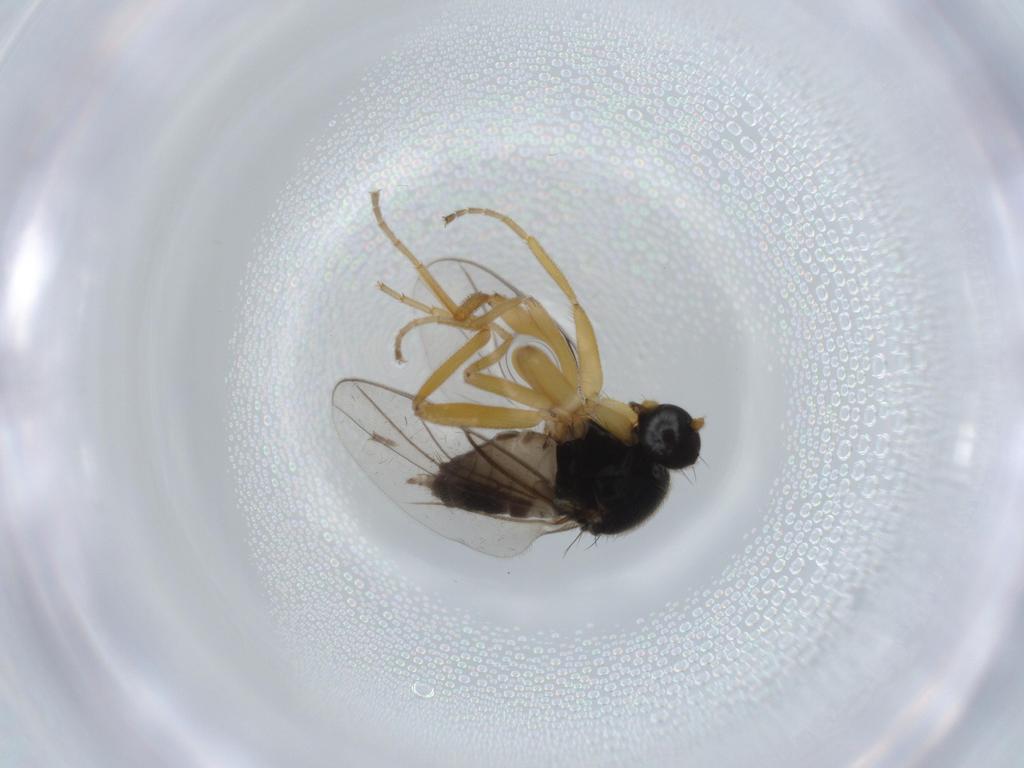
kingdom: Animalia
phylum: Arthropoda
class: Insecta
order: Diptera
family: Hybotidae
